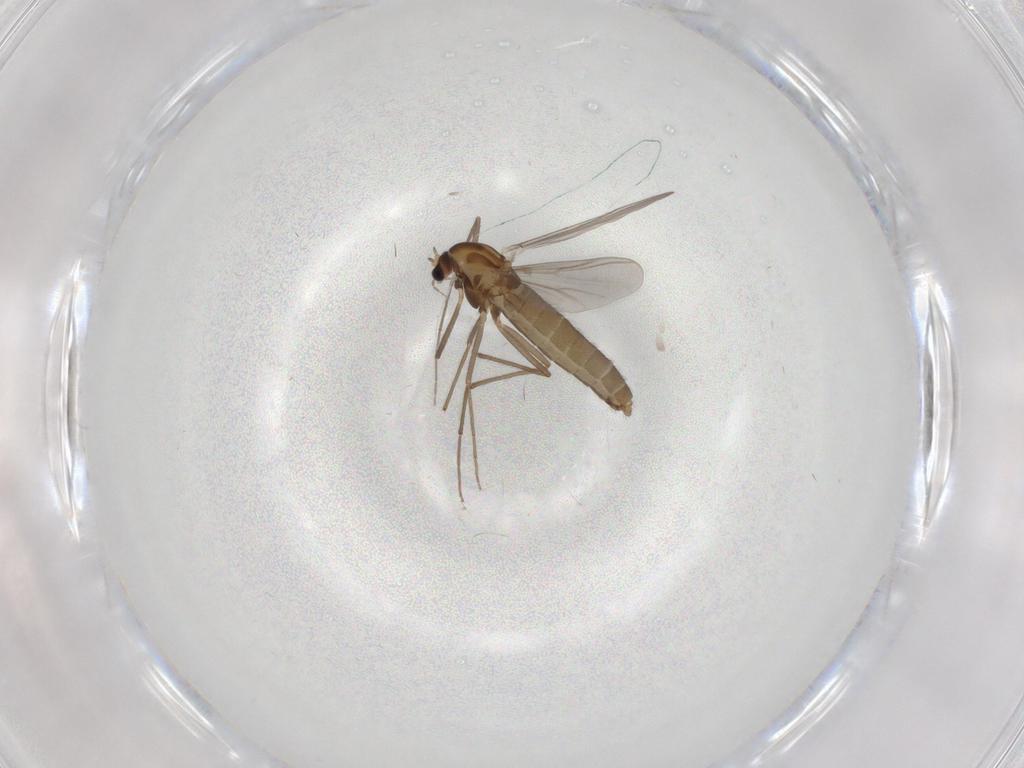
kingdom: Animalia
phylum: Arthropoda
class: Insecta
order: Diptera
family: Chironomidae
